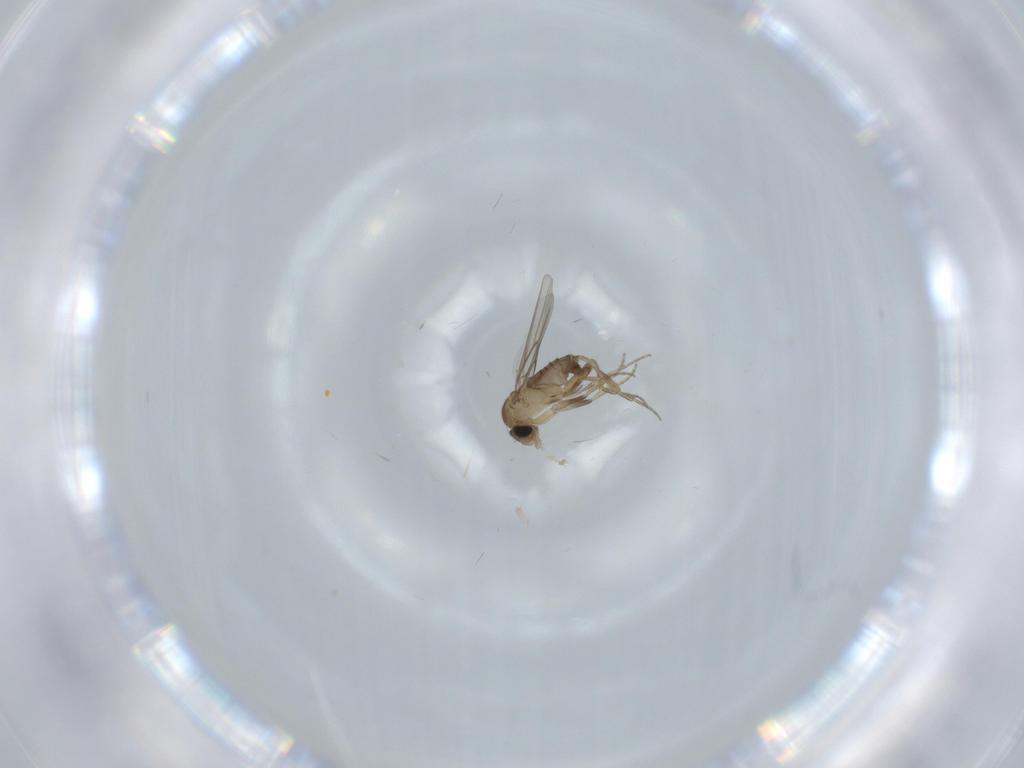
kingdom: Animalia
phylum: Arthropoda
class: Insecta
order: Diptera
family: Phoridae
